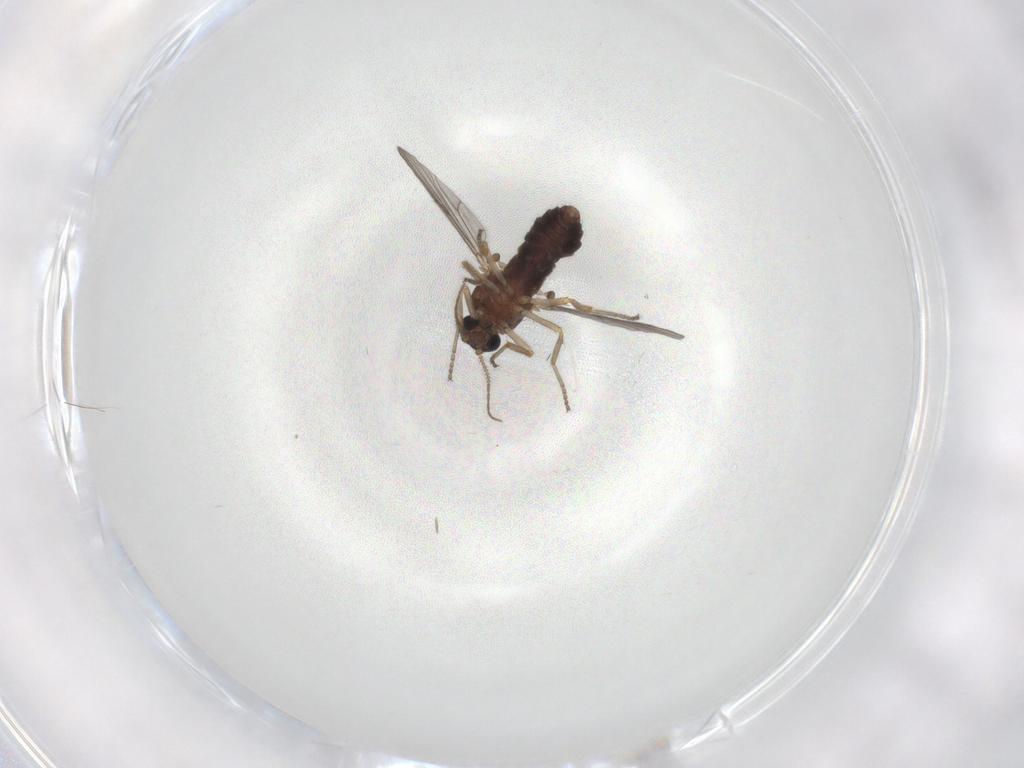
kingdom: Animalia
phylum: Arthropoda
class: Insecta
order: Diptera
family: Ceratopogonidae
